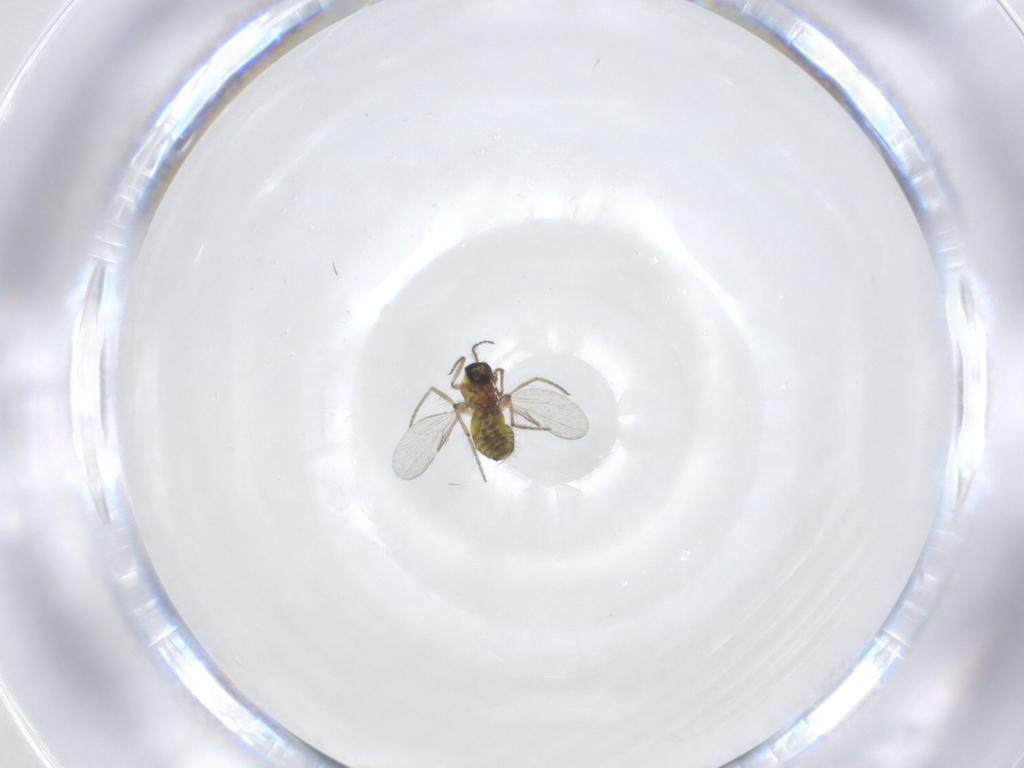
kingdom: Animalia
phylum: Arthropoda
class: Insecta
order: Diptera
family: Ceratopogonidae
